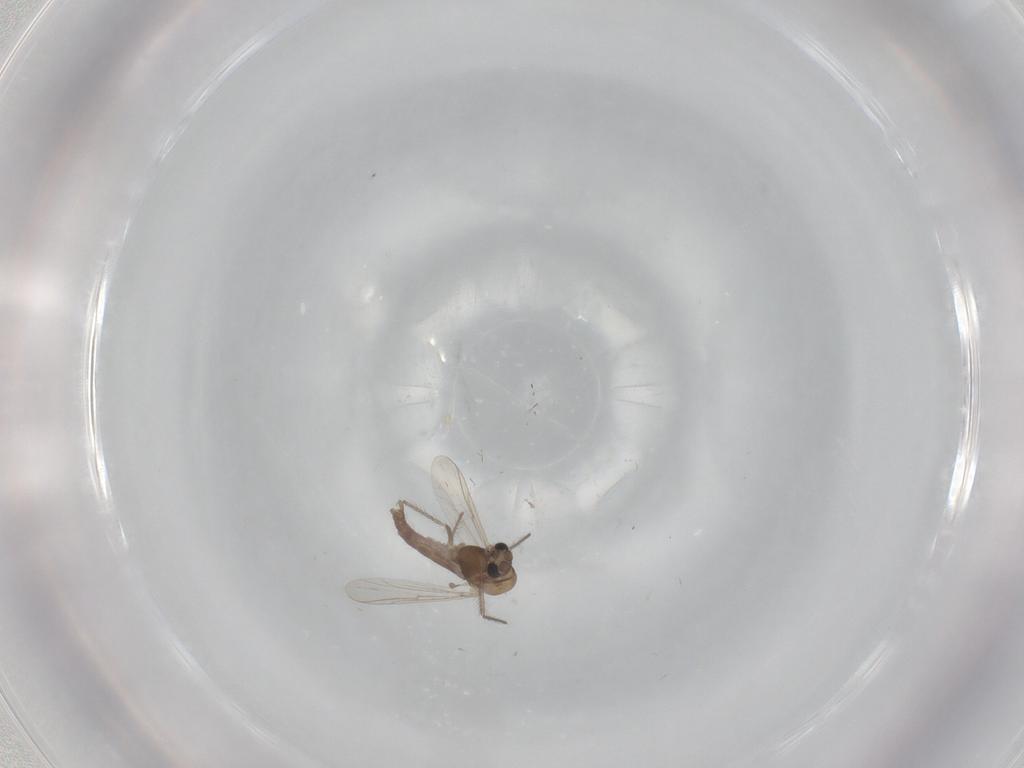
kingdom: Animalia
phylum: Arthropoda
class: Insecta
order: Diptera
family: Chironomidae
